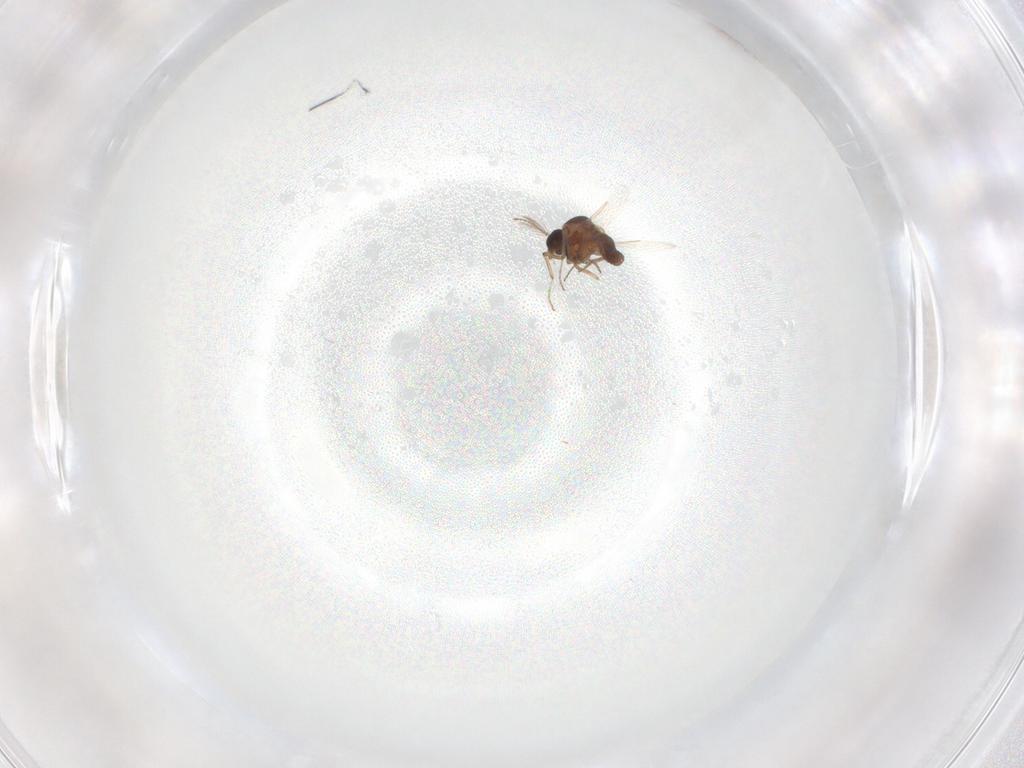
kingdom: Animalia
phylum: Arthropoda
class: Insecta
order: Diptera
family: Ceratopogonidae
